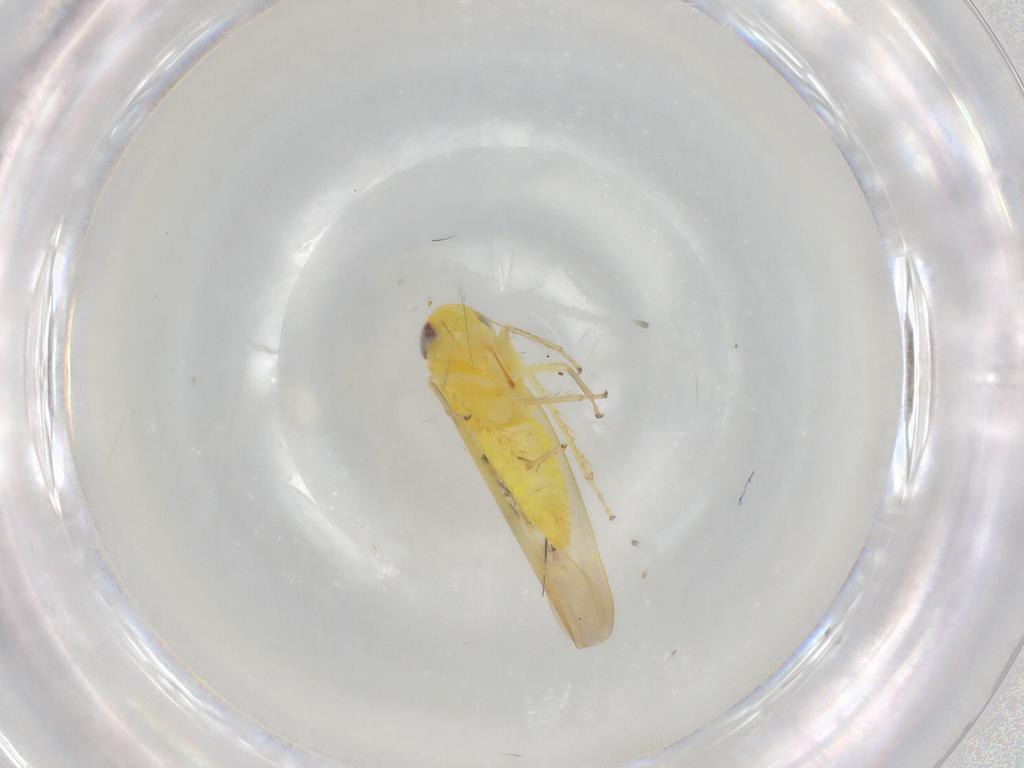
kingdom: Animalia
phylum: Arthropoda
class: Insecta
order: Hemiptera
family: Cicadellidae
